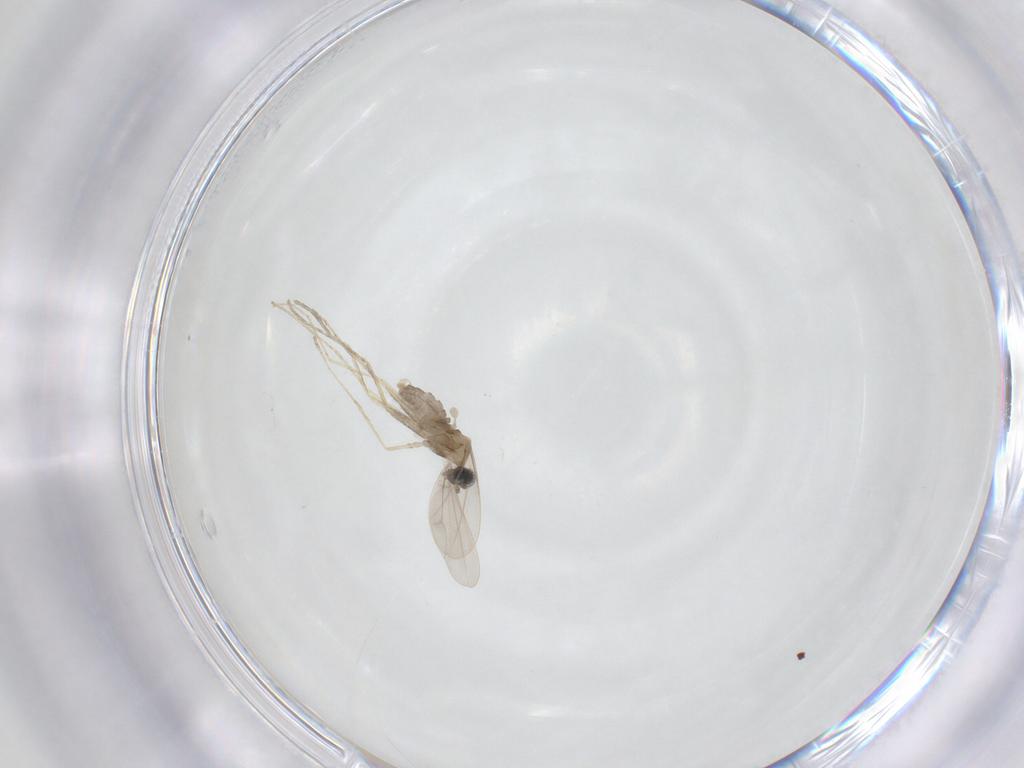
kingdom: Animalia
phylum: Arthropoda
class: Insecta
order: Diptera
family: Cecidomyiidae
